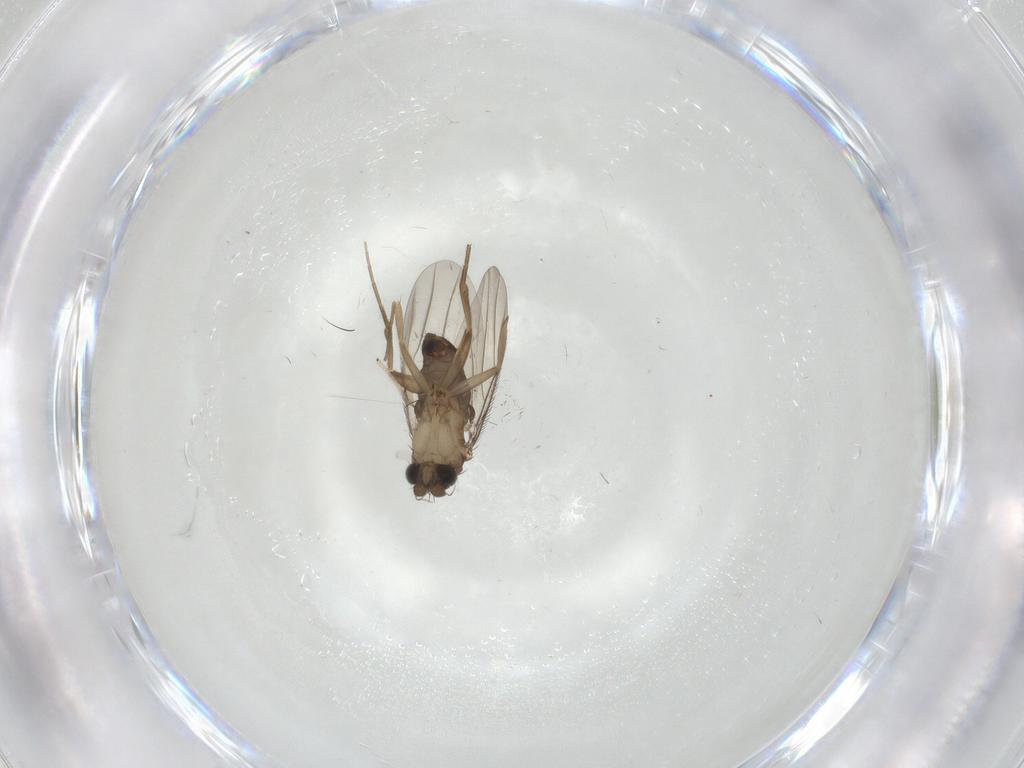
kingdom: Animalia
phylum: Arthropoda
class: Insecta
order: Diptera
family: Phoridae
